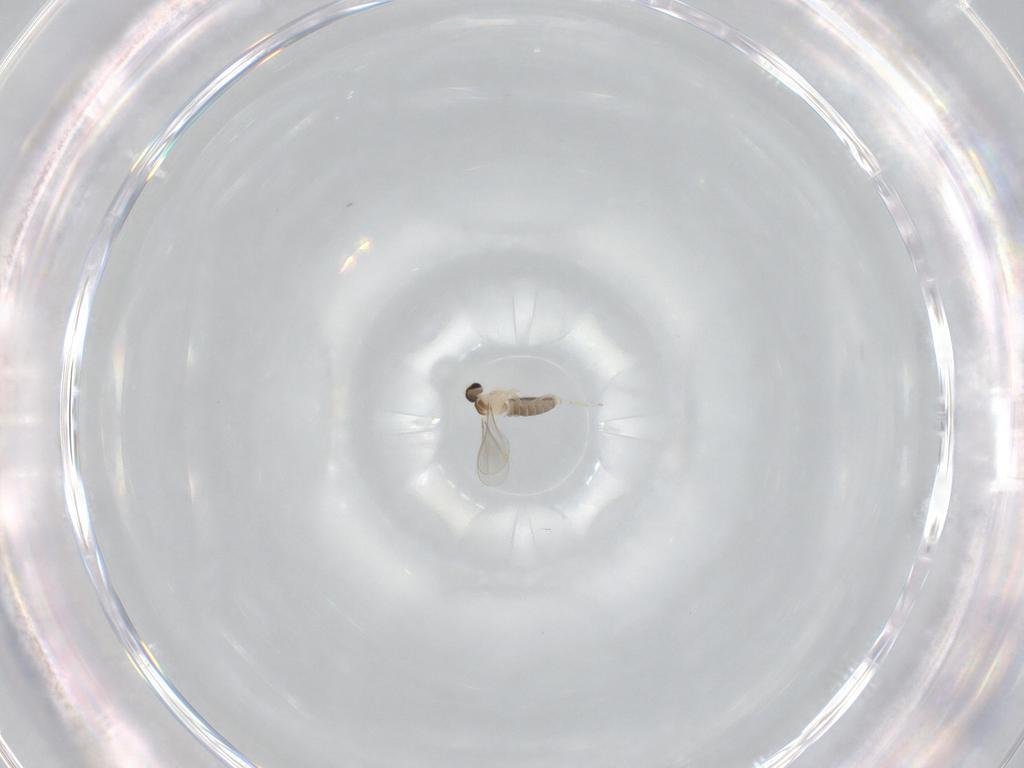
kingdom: Animalia
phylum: Arthropoda
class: Insecta
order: Diptera
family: Cecidomyiidae
